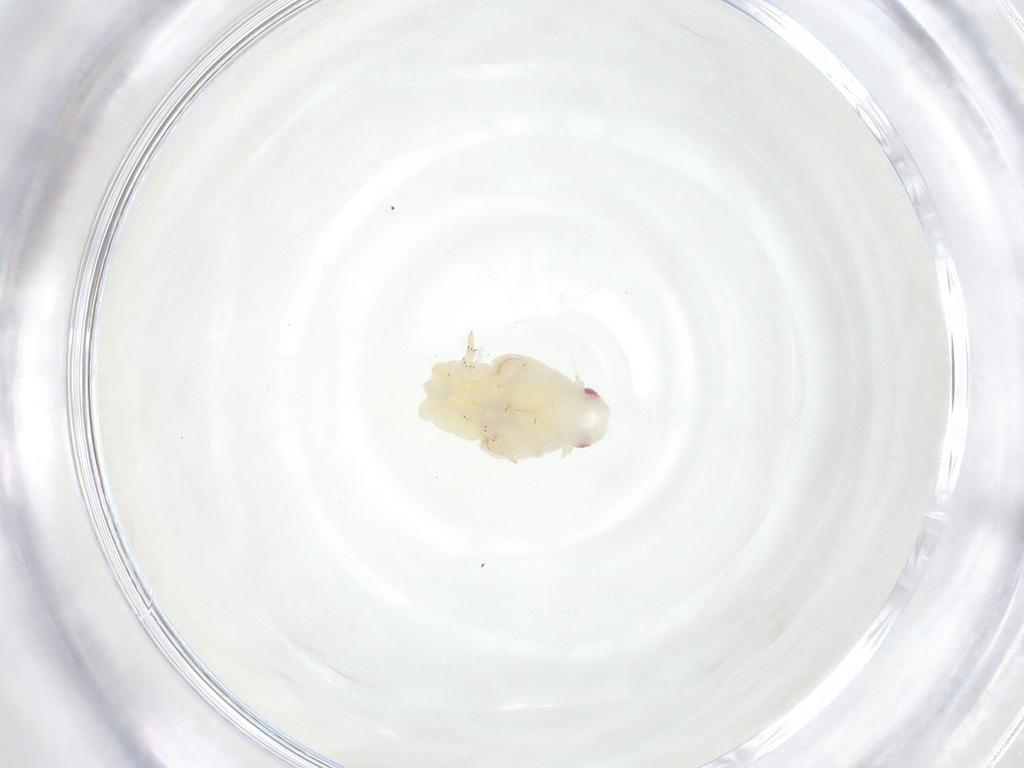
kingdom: Animalia
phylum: Arthropoda
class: Insecta
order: Hemiptera
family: Flatidae
